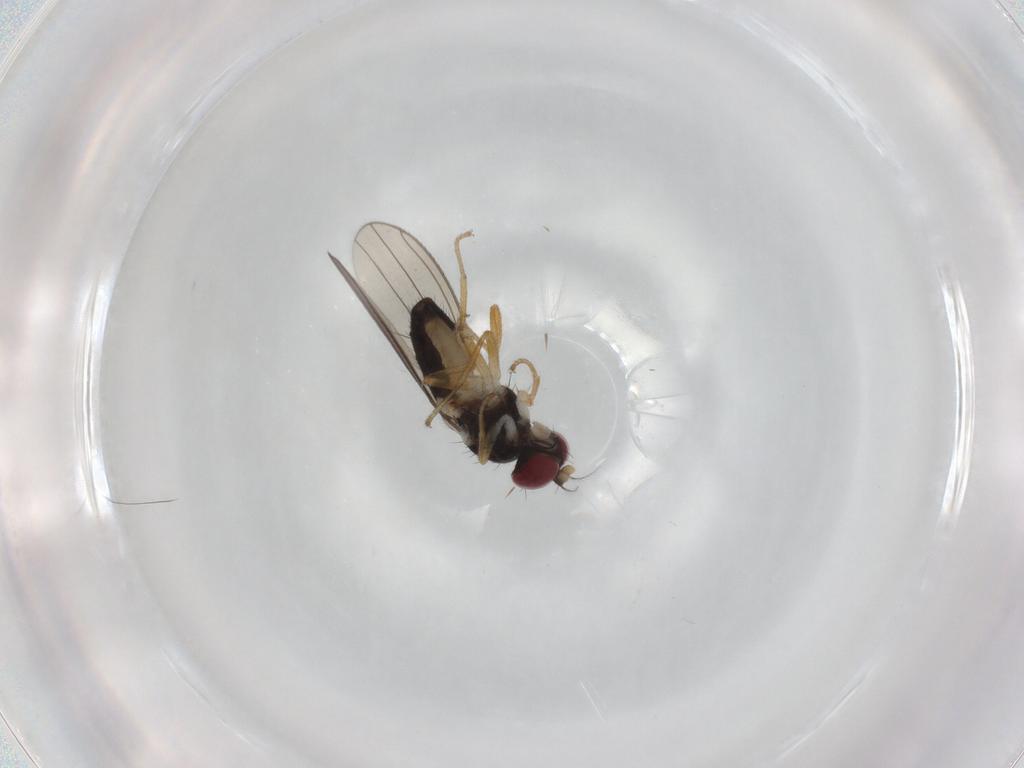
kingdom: Animalia
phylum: Arthropoda
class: Insecta
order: Diptera
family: Anthomyzidae
